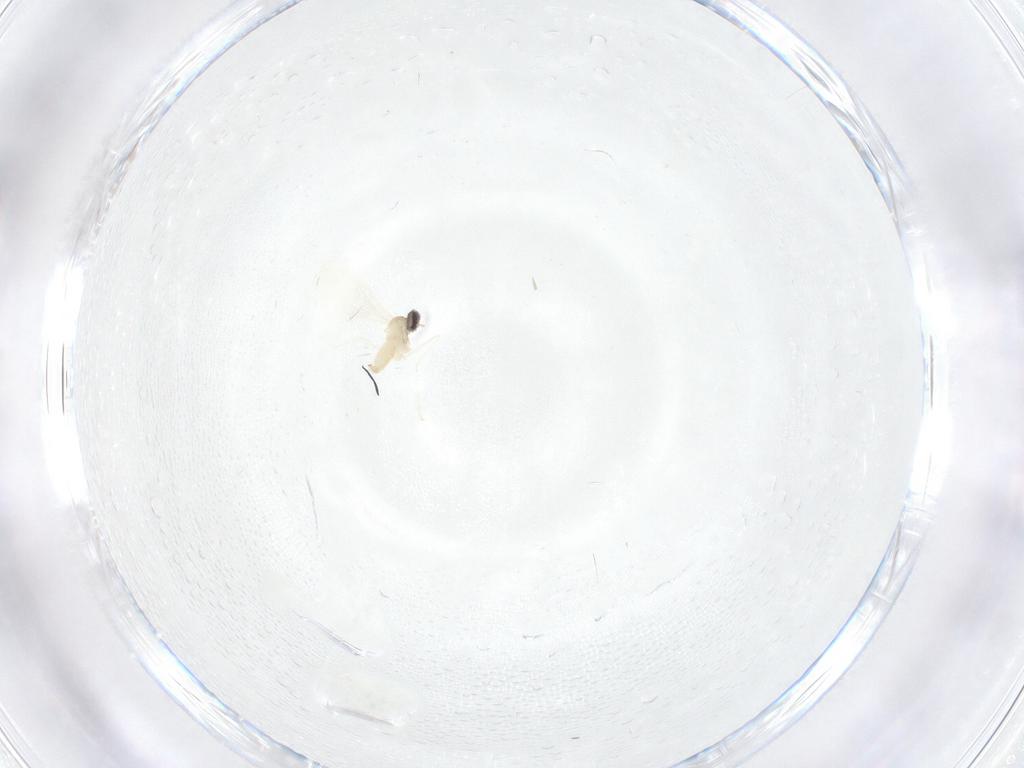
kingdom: Animalia
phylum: Arthropoda
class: Insecta
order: Diptera
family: Cecidomyiidae
